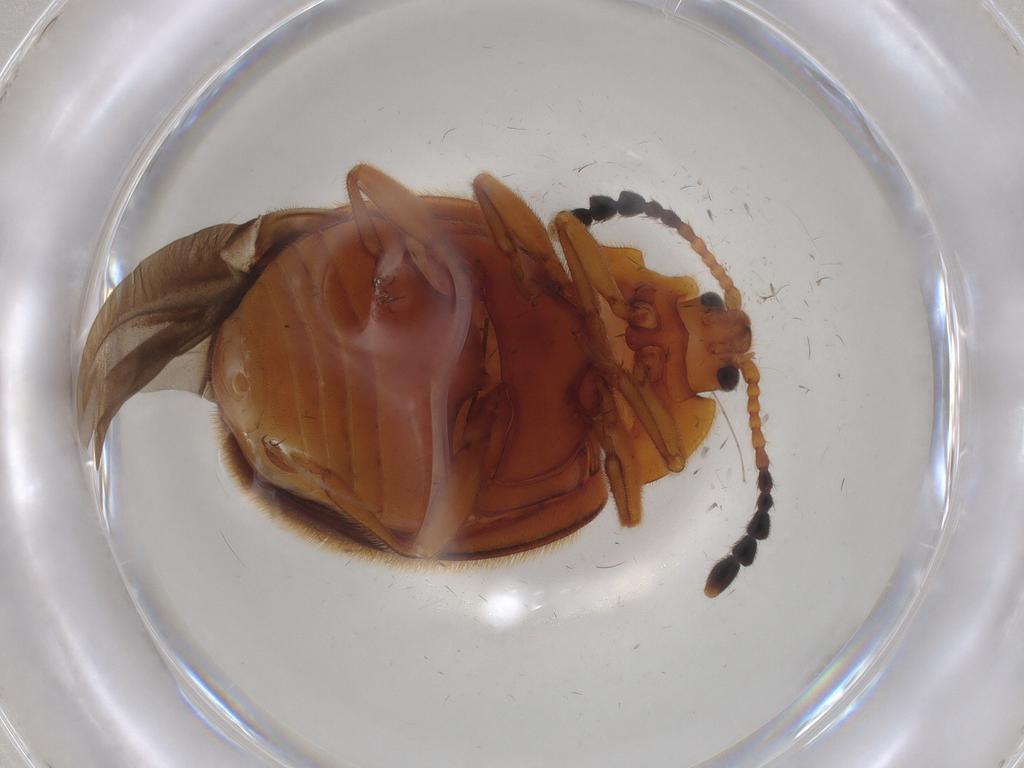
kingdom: Animalia
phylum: Arthropoda
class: Insecta
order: Coleoptera
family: Endomychidae
